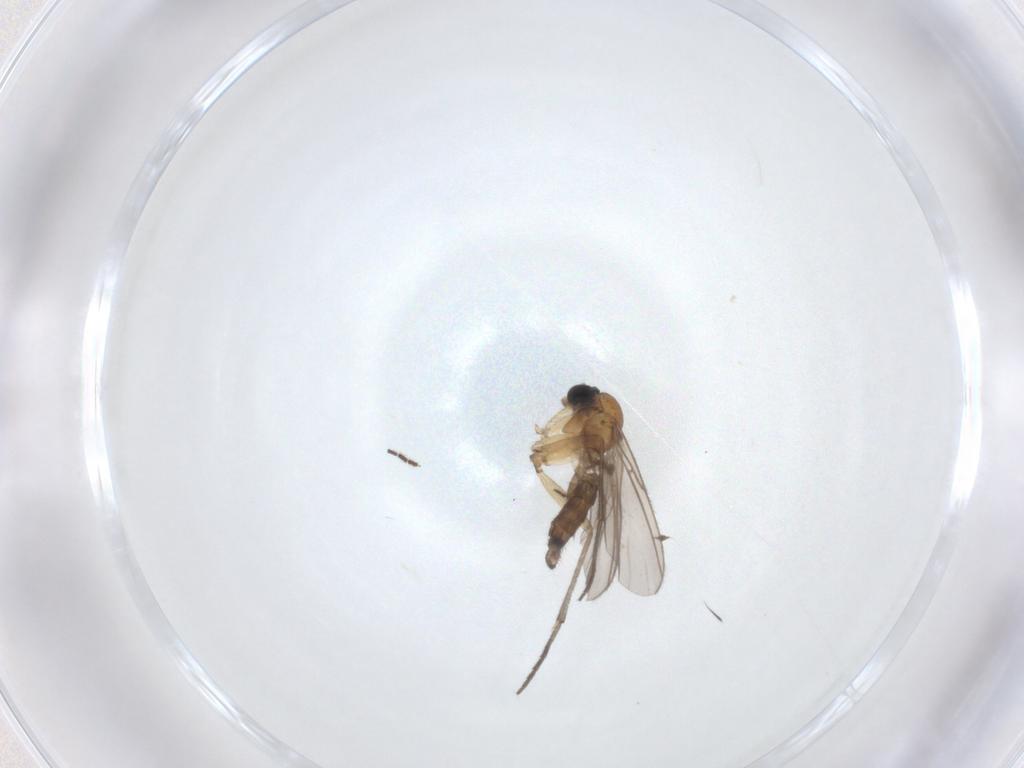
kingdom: Animalia
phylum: Arthropoda
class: Insecta
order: Diptera
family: Sciaridae
